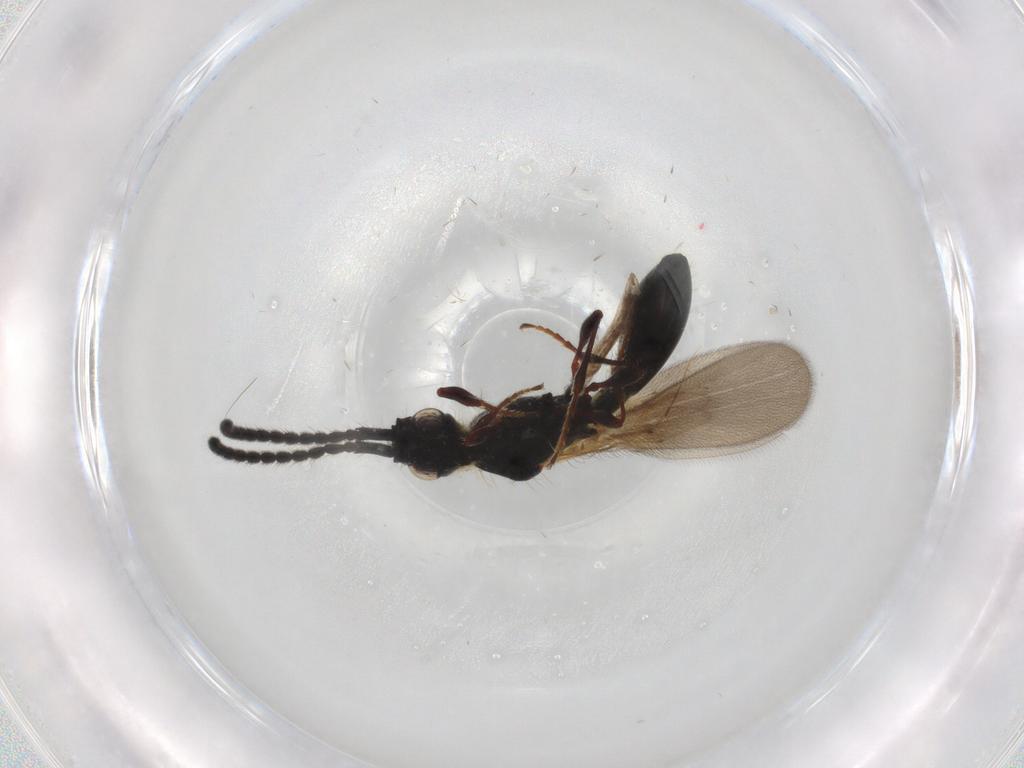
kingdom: Animalia
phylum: Arthropoda
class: Insecta
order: Hymenoptera
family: Diapriidae
